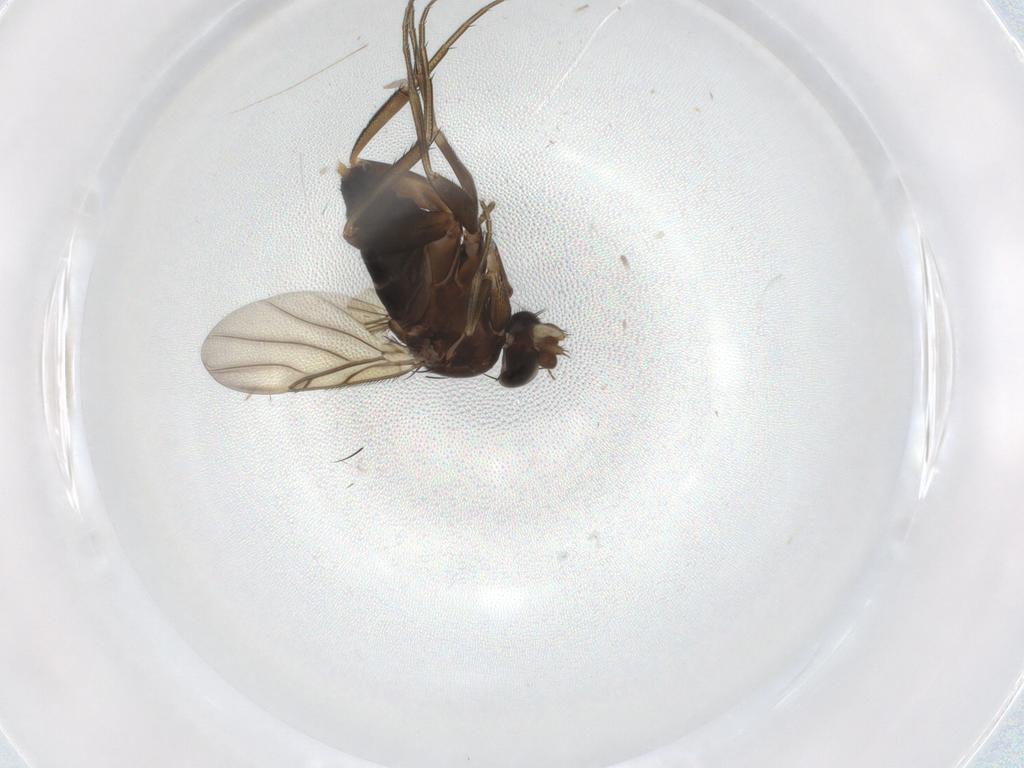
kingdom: Animalia
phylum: Arthropoda
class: Insecta
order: Diptera
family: Phoridae
